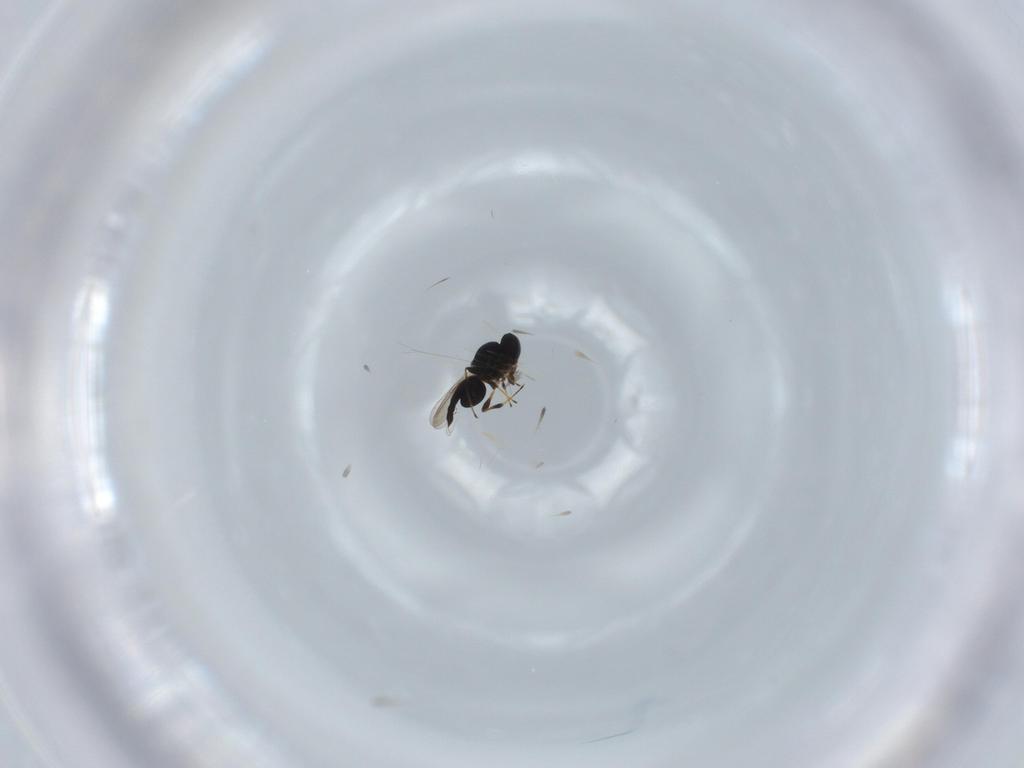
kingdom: Animalia
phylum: Arthropoda
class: Insecta
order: Hymenoptera
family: Platygastridae
